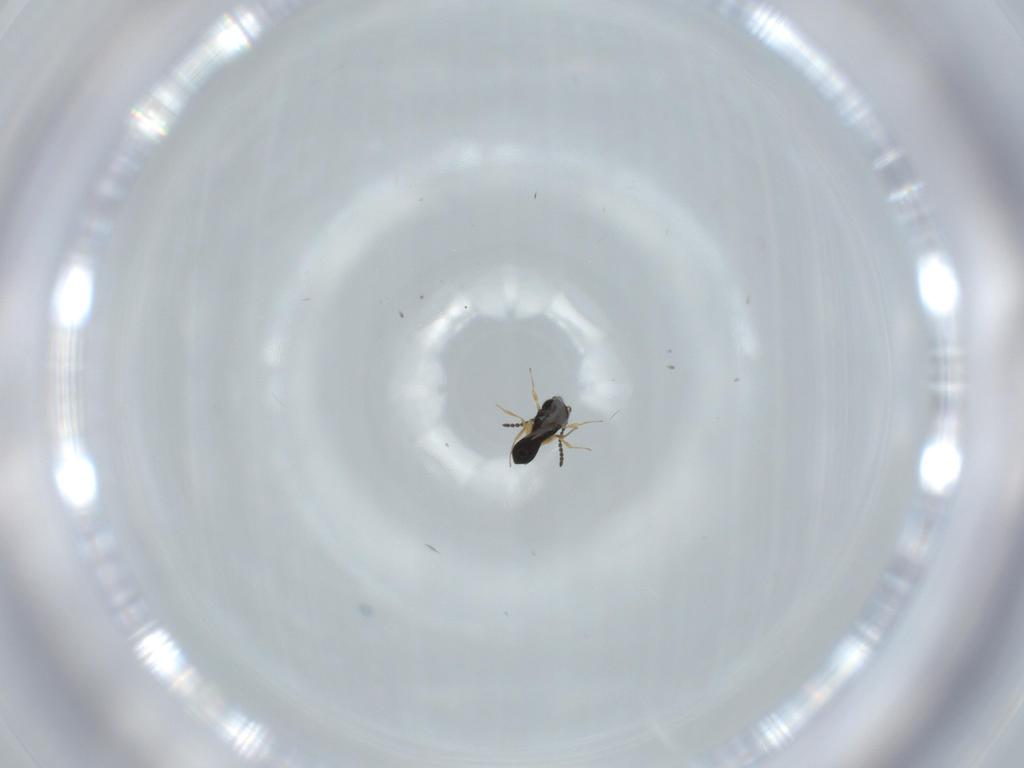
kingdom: Animalia
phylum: Arthropoda
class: Insecta
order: Hymenoptera
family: Scelionidae
